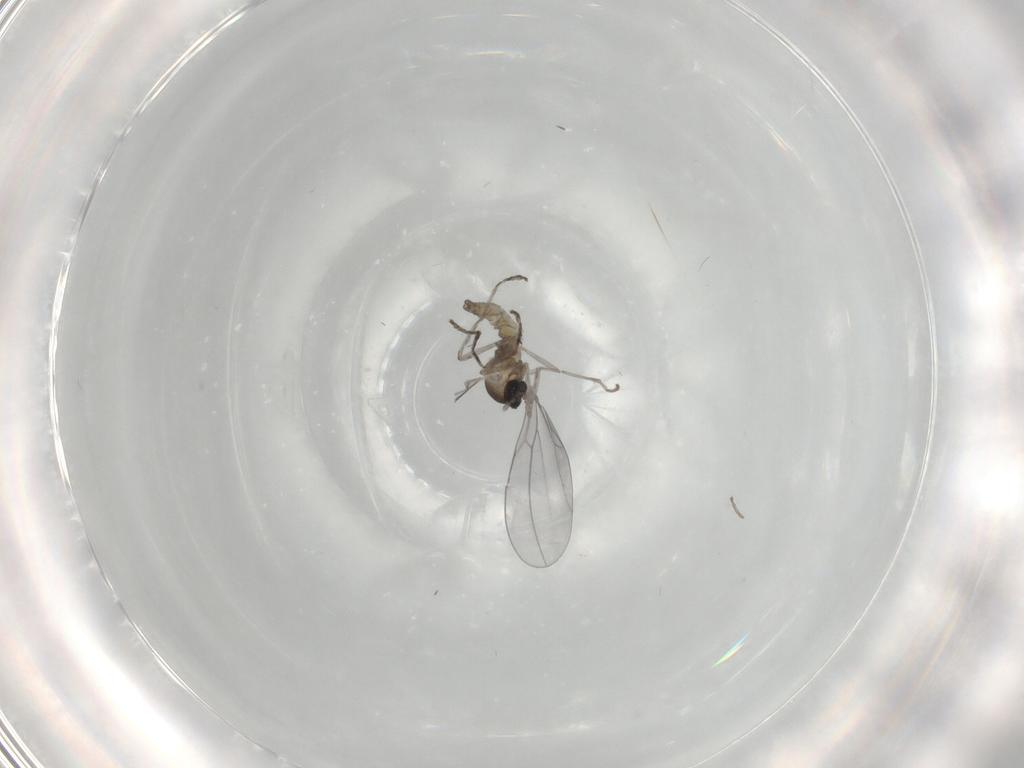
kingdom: Animalia
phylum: Arthropoda
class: Insecta
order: Diptera
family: Cecidomyiidae
